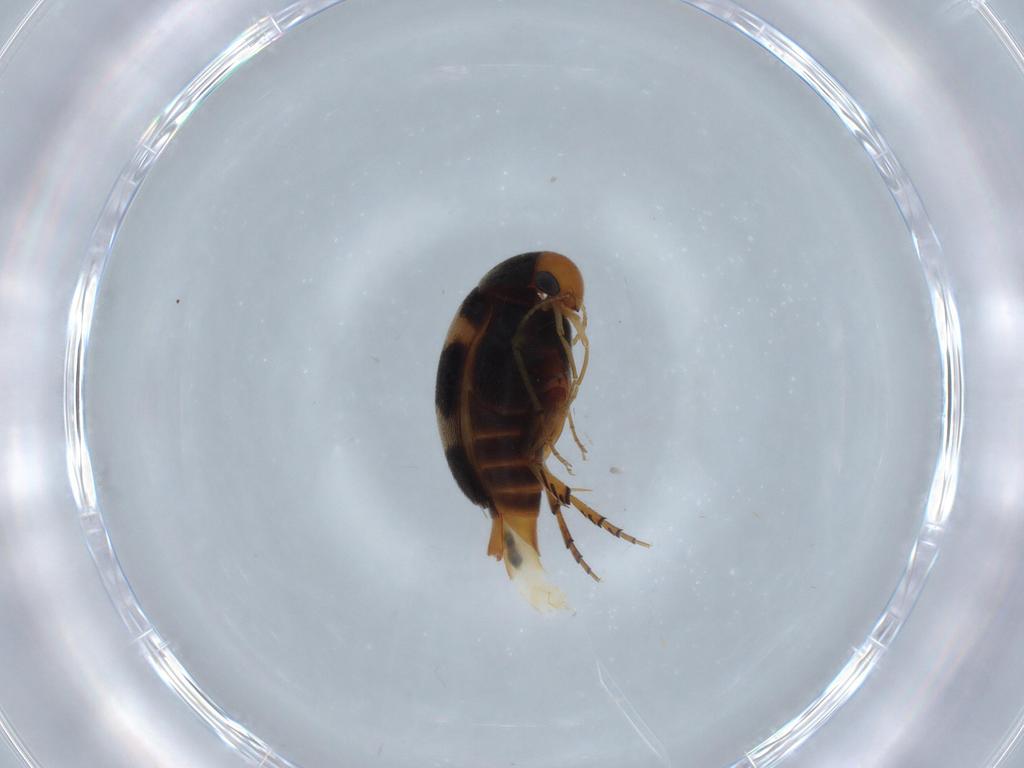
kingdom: Animalia
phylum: Arthropoda
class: Insecta
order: Coleoptera
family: Mordellidae
